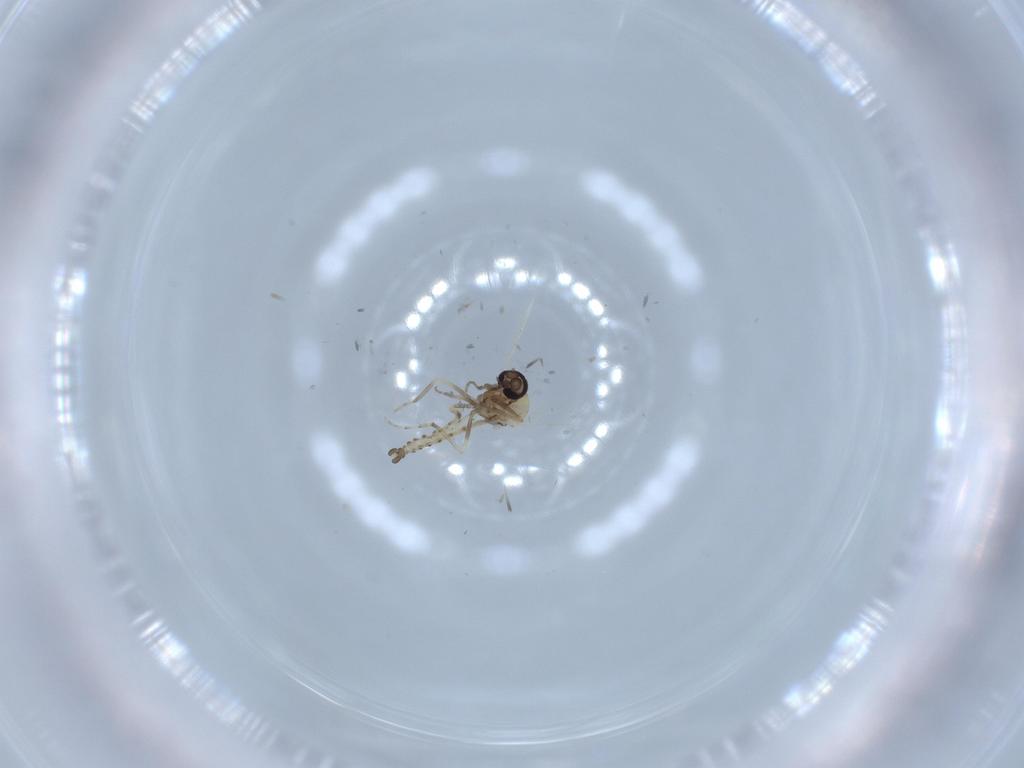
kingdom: Animalia
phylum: Arthropoda
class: Insecta
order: Diptera
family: Ceratopogonidae
